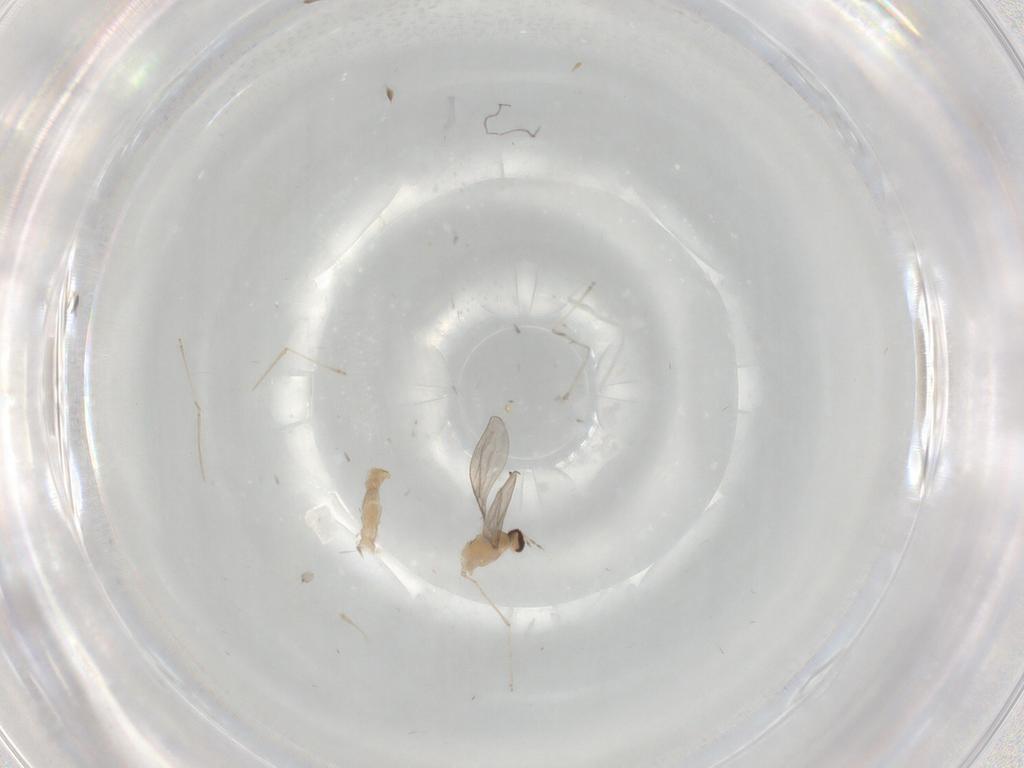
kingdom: Animalia
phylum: Arthropoda
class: Insecta
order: Diptera
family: Cecidomyiidae
